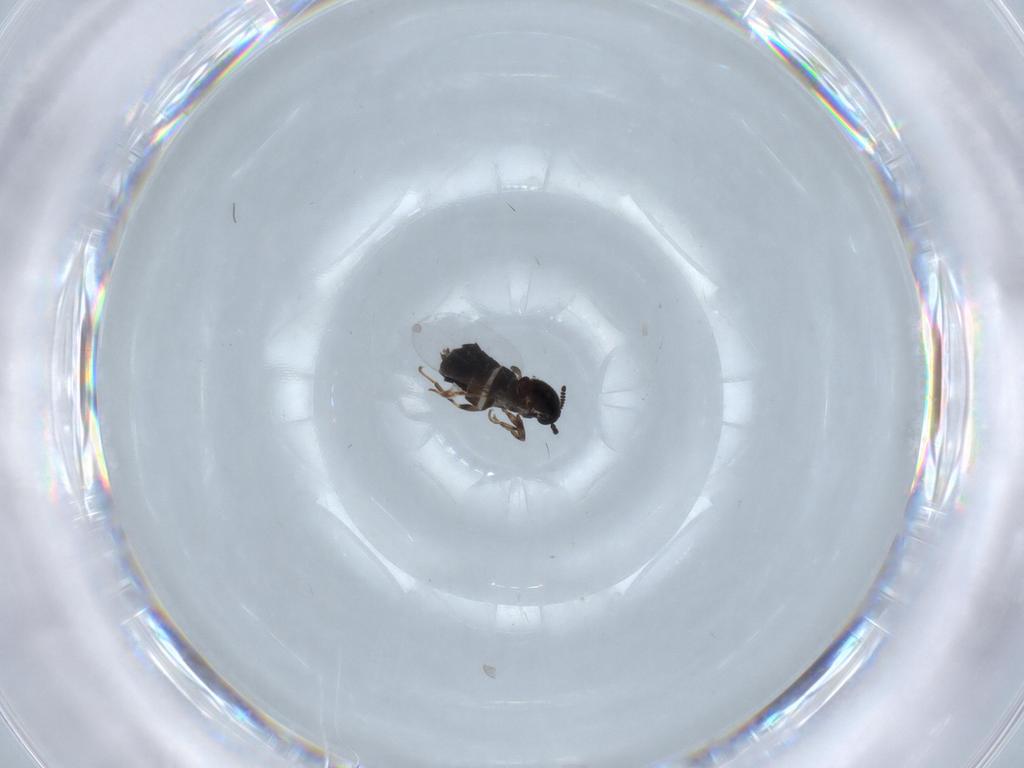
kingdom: Animalia
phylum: Arthropoda
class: Insecta
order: Diptera
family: Scatopsidae
